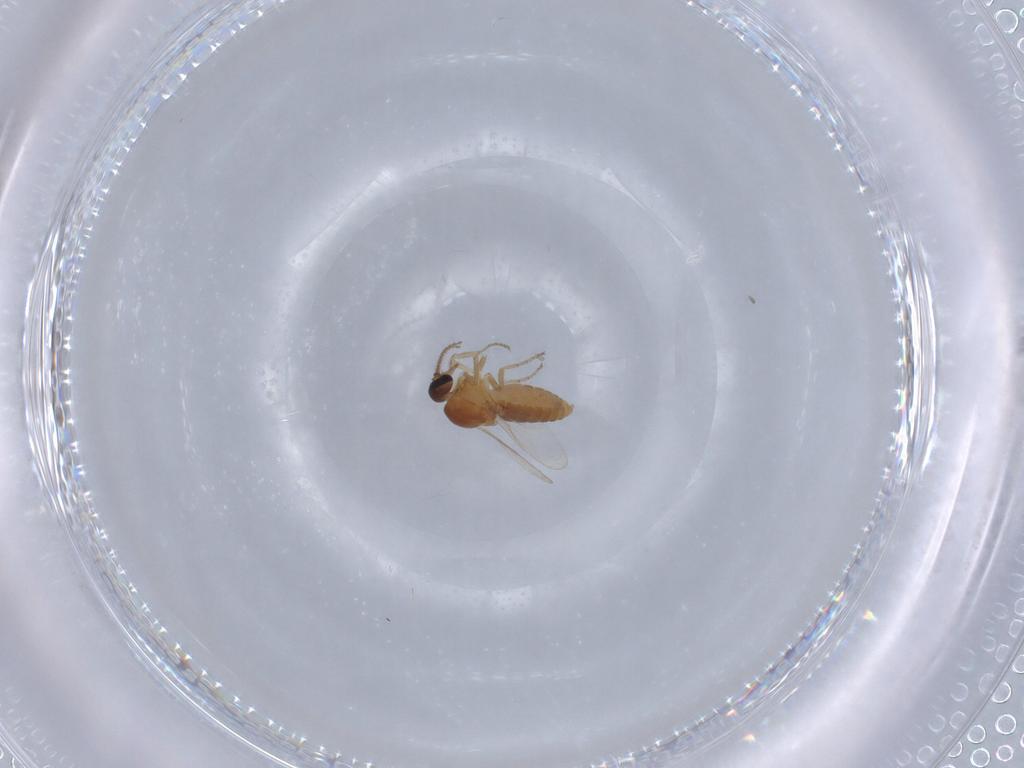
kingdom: Animalia
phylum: Arthropoda
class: Insecta
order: Diptera
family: Ceratopogonidae
